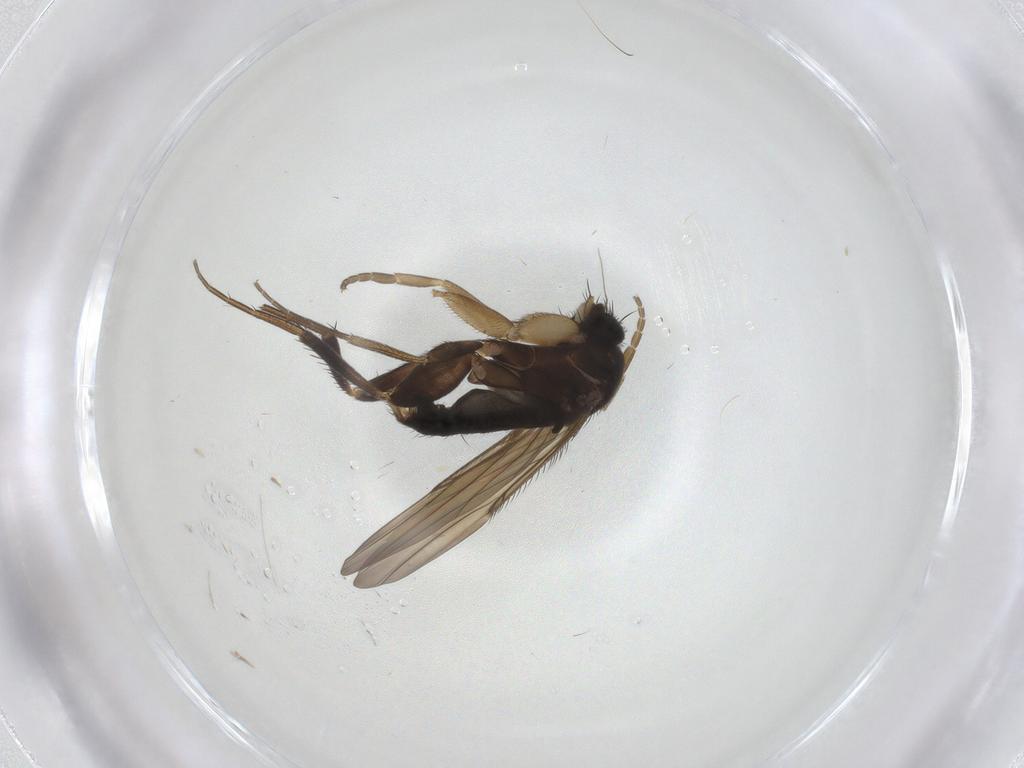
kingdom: Animalia
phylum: Arthropoda
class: Insecta
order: Diptera
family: Phoridae
